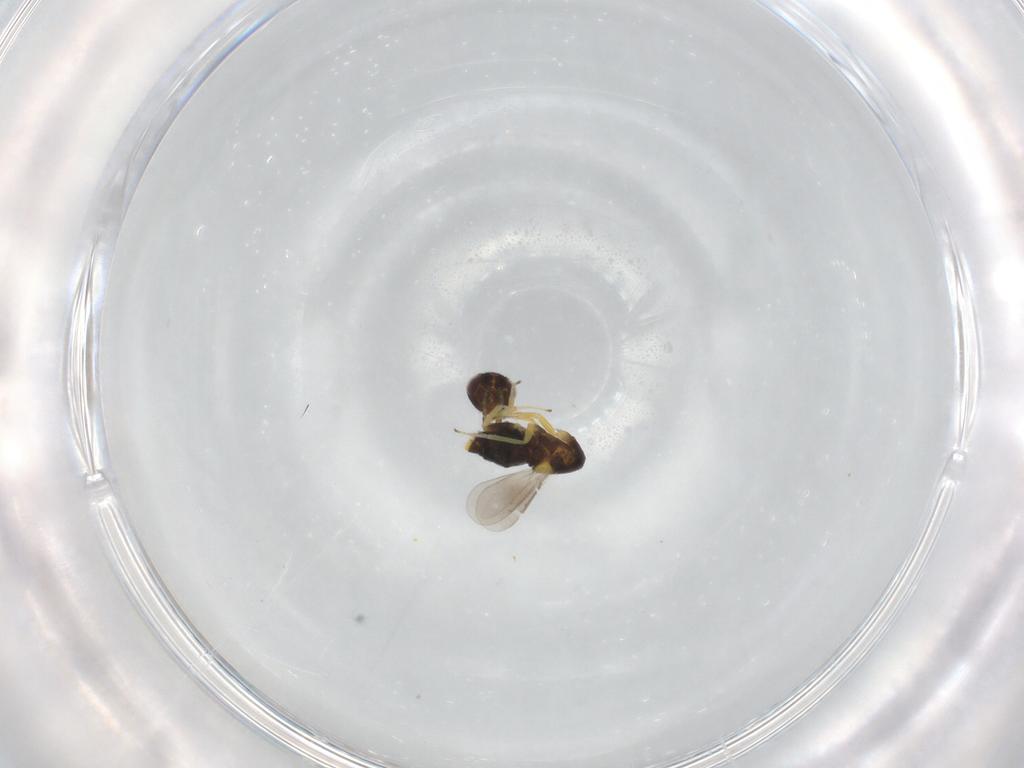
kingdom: Animalia
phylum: Arthropoda
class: Insecta
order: Hymenoptera
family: Aphelinidae
